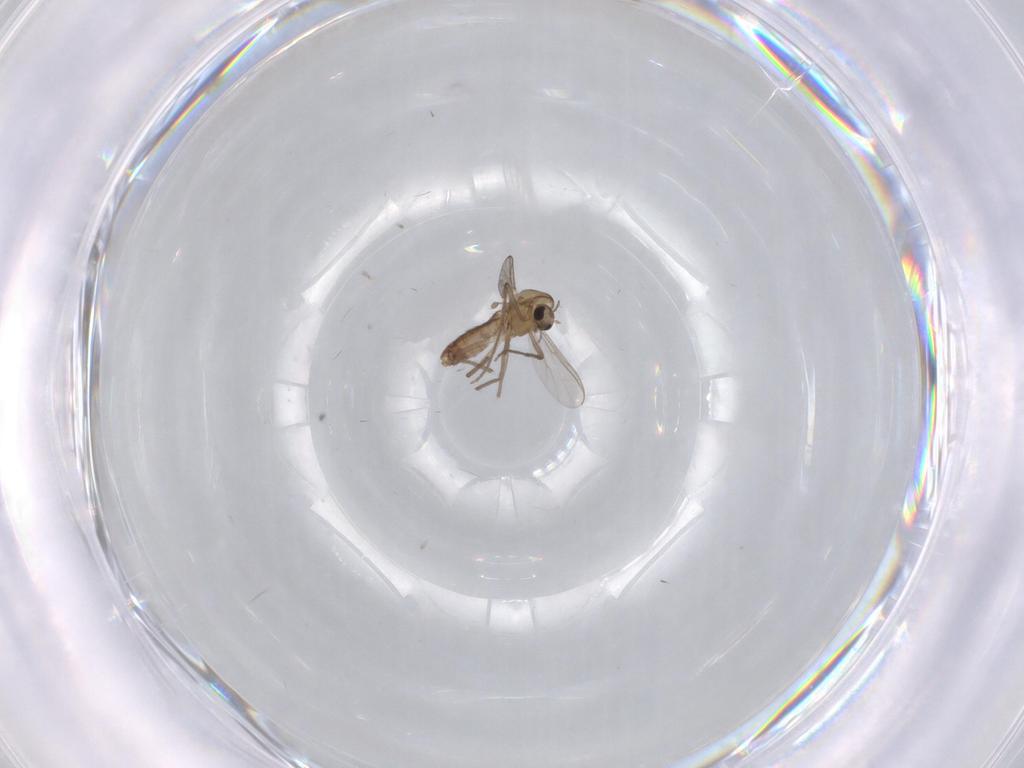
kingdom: Animalia
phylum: Arthropoda
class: Insecta
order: Diptera
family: Chironomidae
